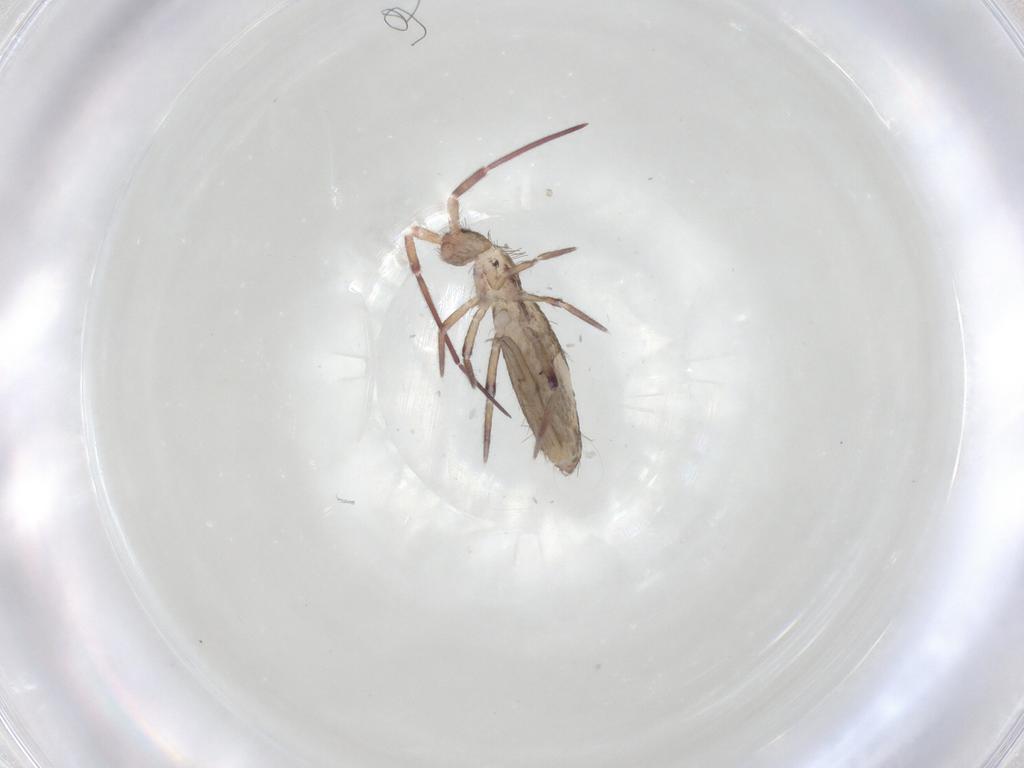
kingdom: Animalia
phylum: Arthropoda
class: Collembola
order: Entomobryomorpha
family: Entomobryidae
